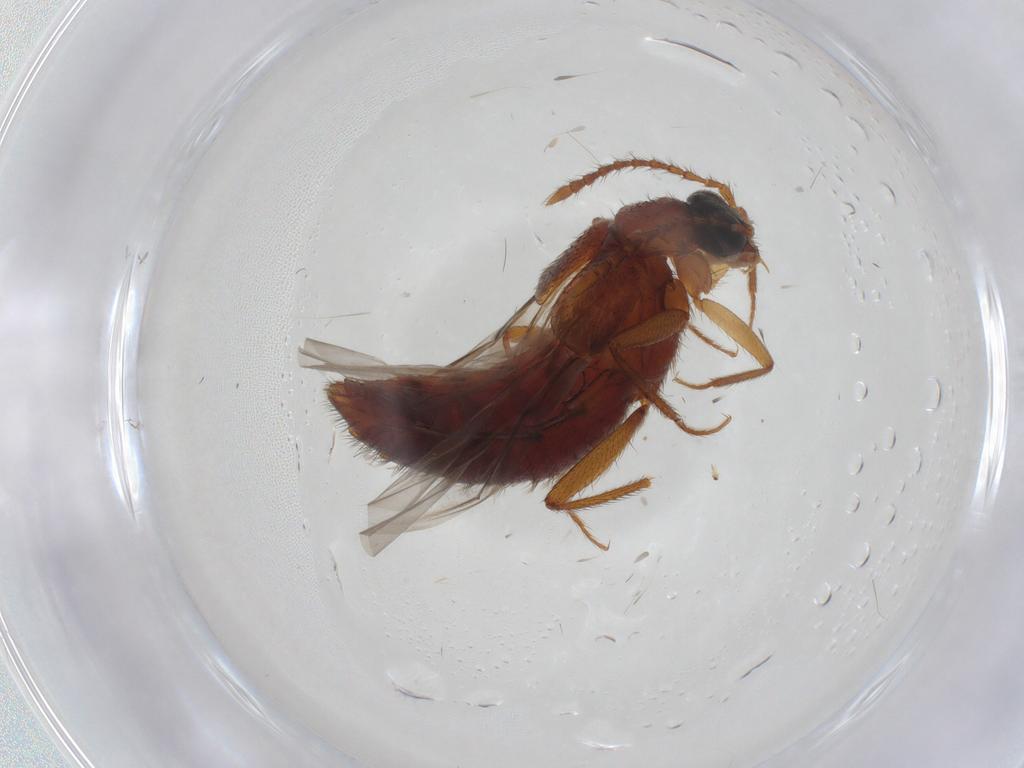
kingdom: Animalia
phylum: Arthropoda
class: Insecta
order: Coleoptera
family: Staphylinidae
